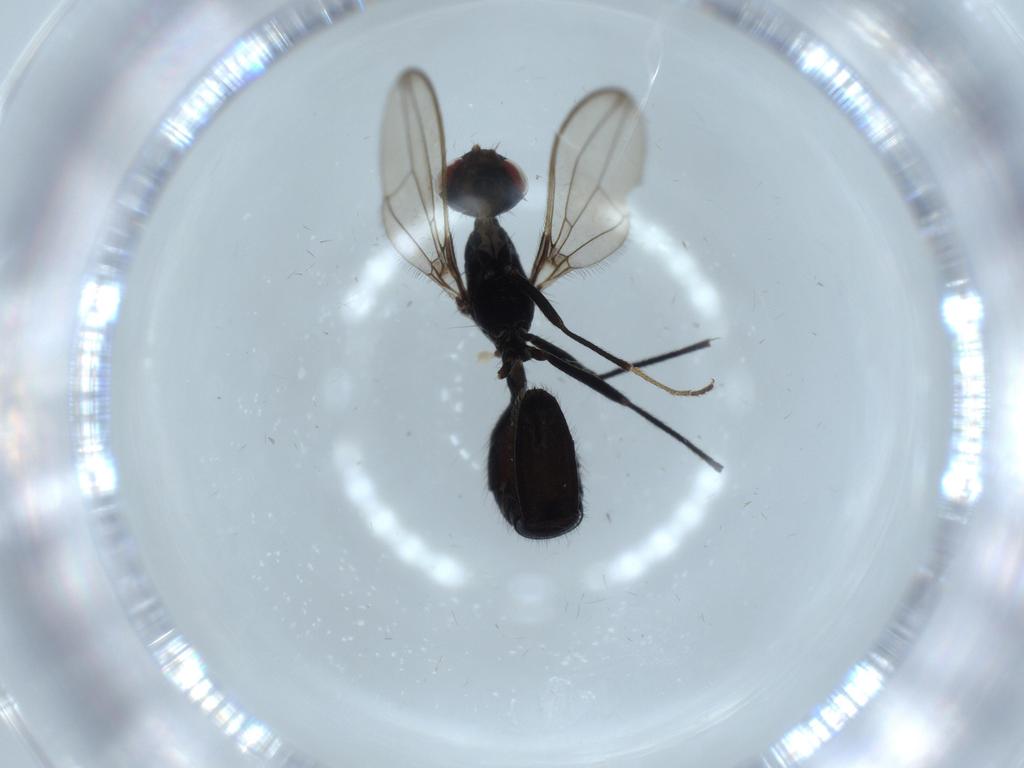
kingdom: Animalia
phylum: Arthropoda
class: Insecta
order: Diptera
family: Richardiidae
